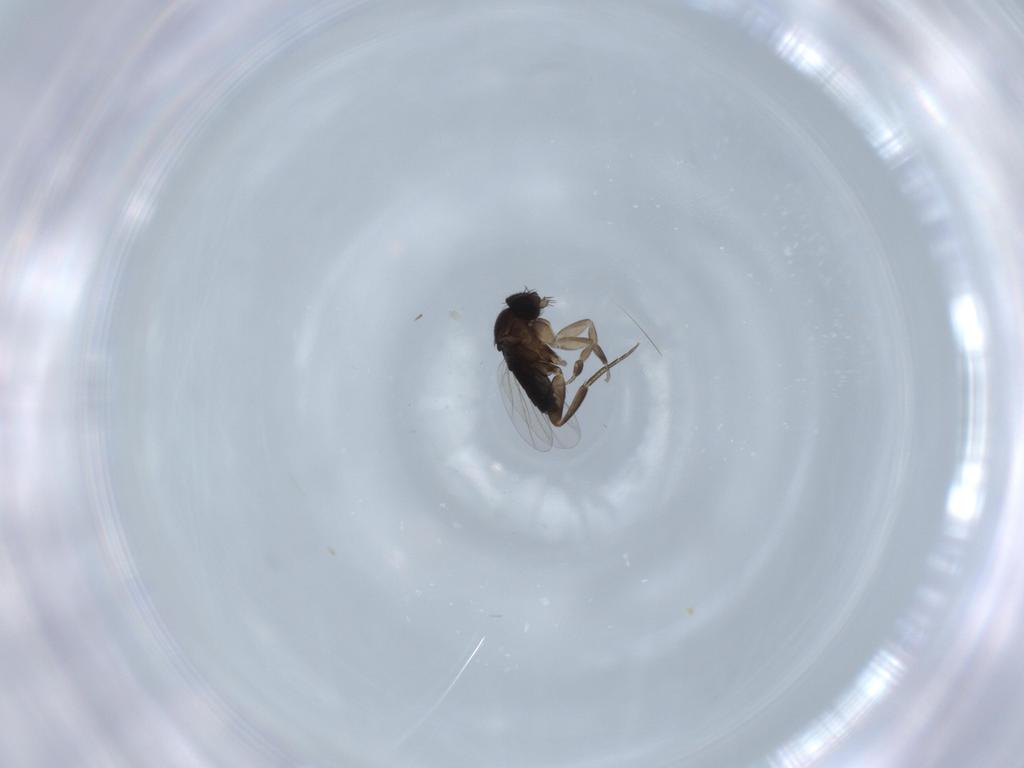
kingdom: Animalia
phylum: Arthropoda
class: Insecta
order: Diptera
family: Phoridae
